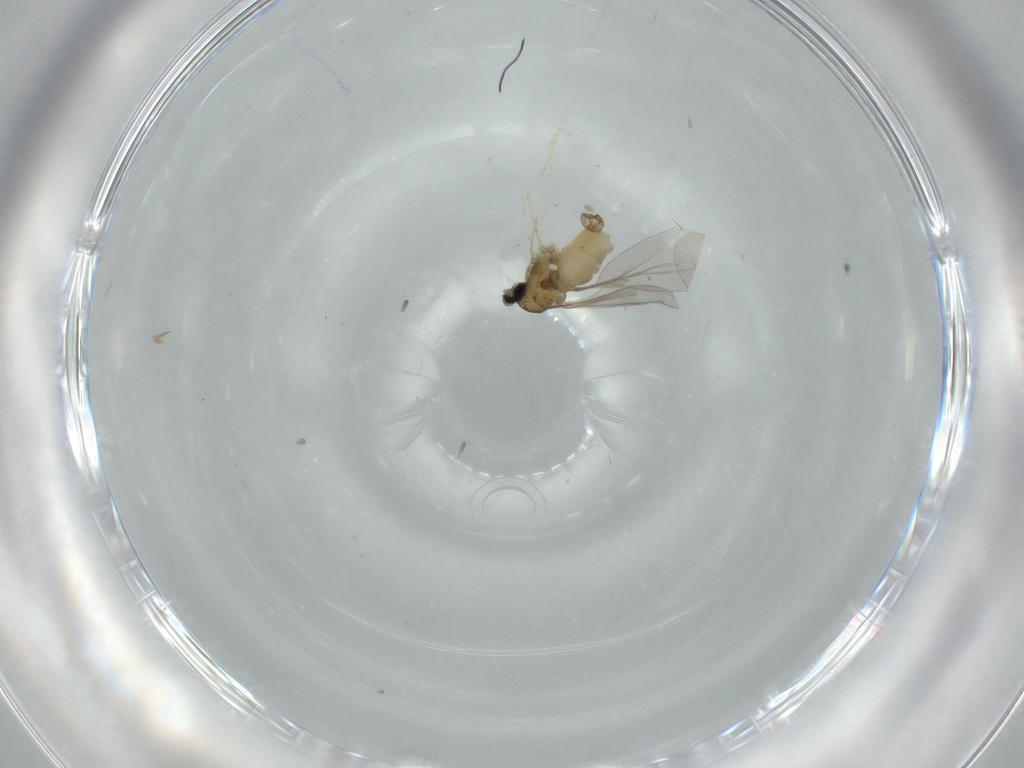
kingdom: Animalia
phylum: Arthropoda
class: Insecta
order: Diptera
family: Cecidomyiidae
